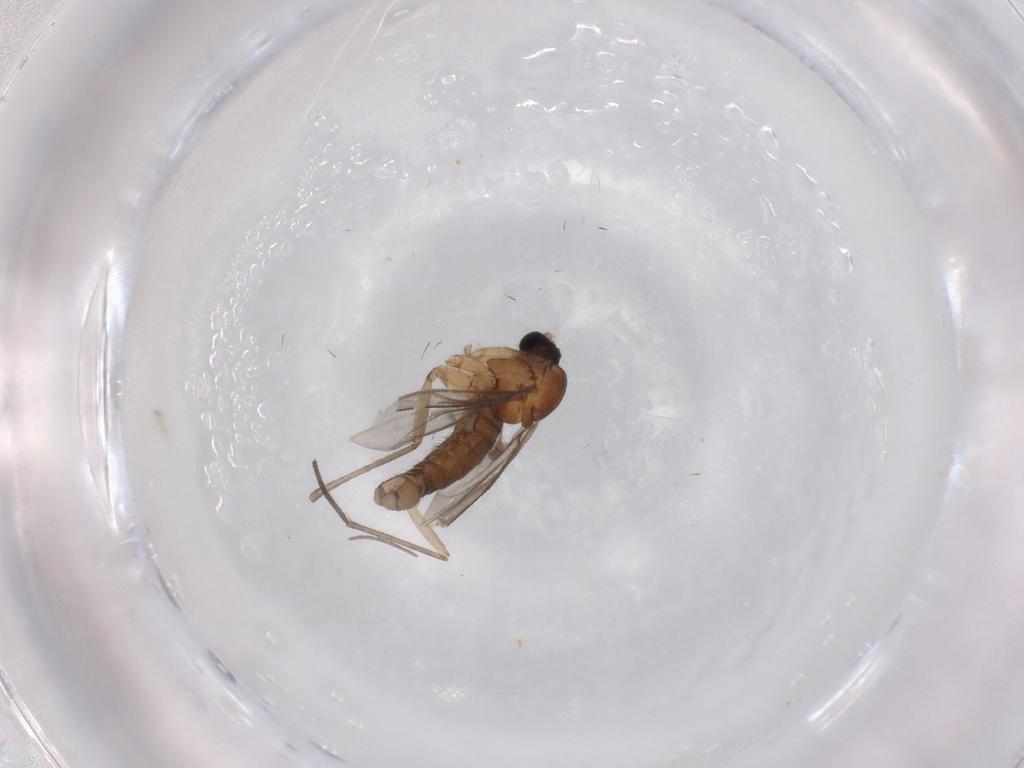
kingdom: Animalia
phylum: Arthropoda
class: Insecta
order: Diptera
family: Sciaridae
